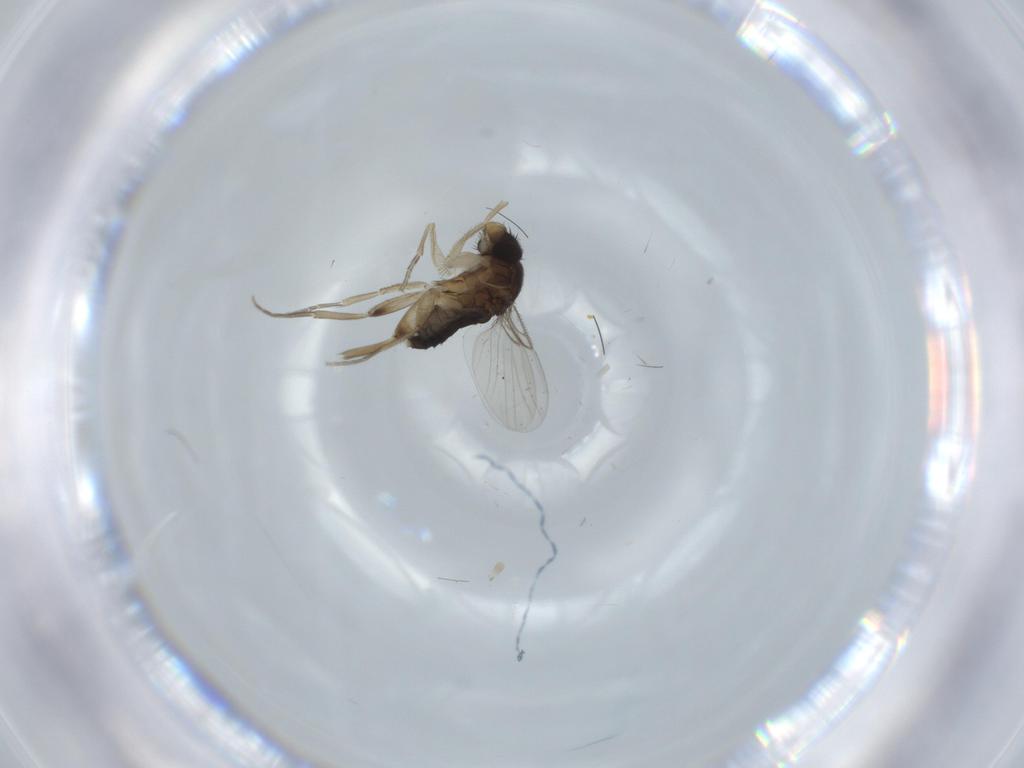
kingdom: Animalia
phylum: Arthropoda
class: Insecta
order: Diptera
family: Phoridae
